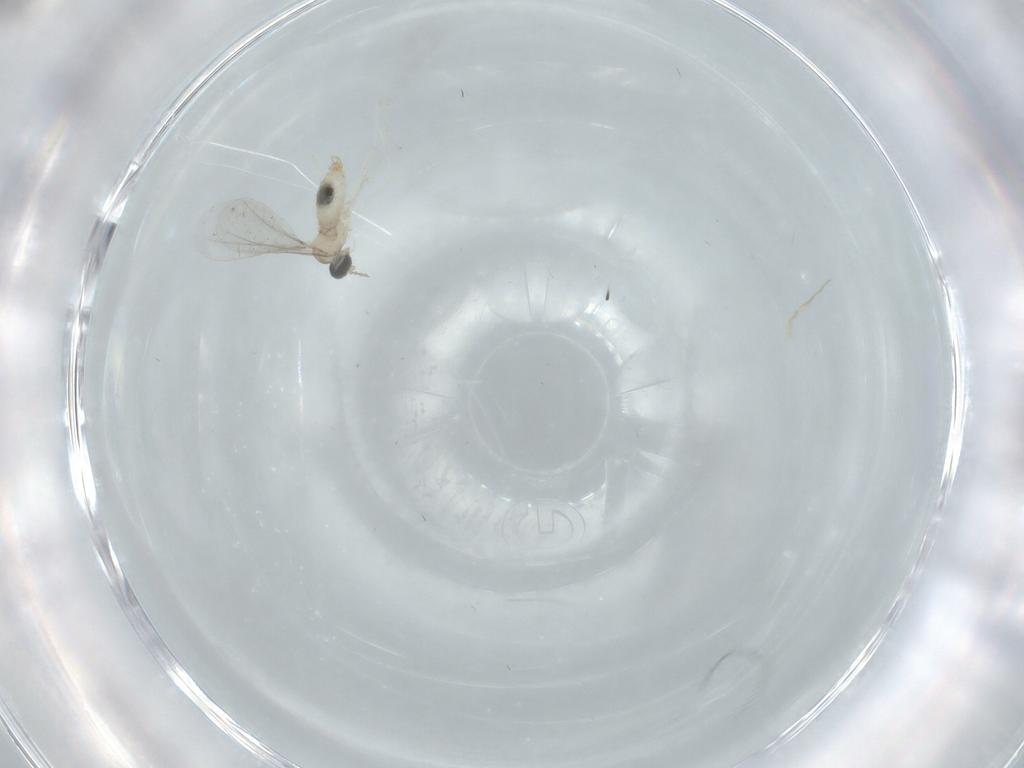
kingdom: Animalia
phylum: Arthropoda
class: Insecta
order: Diptera
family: Cecidomyiidae
